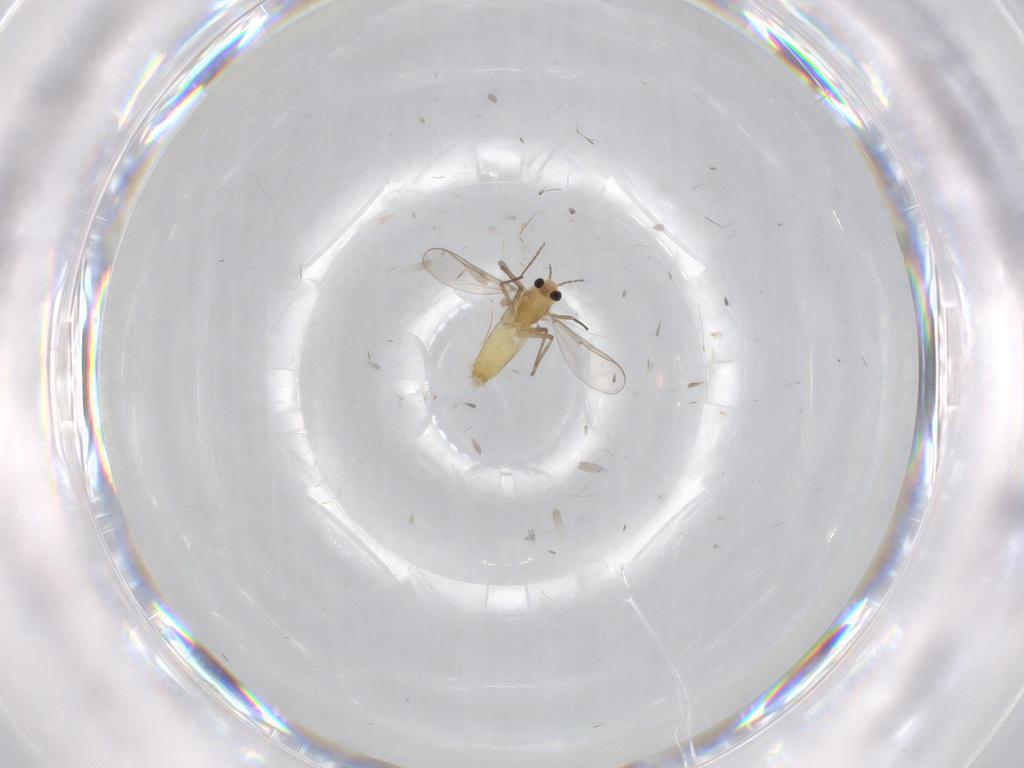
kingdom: Animalia
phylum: Arthropoda
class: Insecta
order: Diptera
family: Chironomidae
